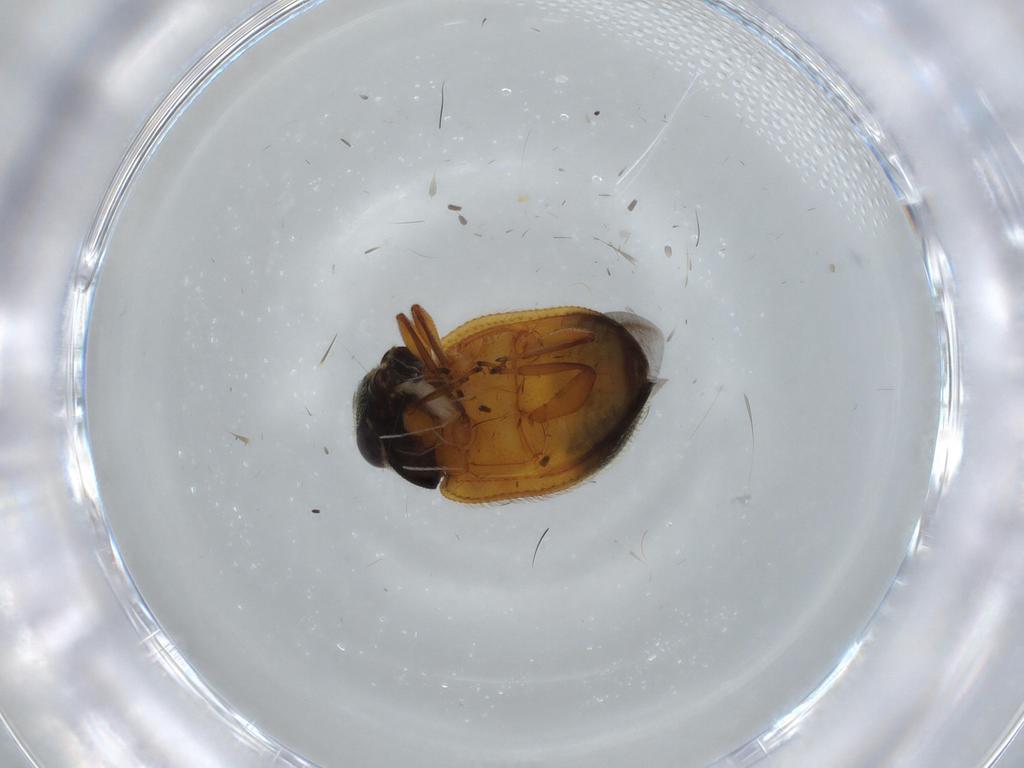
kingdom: Animalia
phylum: Arthropoda
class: Insecta
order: Coleoptera
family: Coccinellidae
